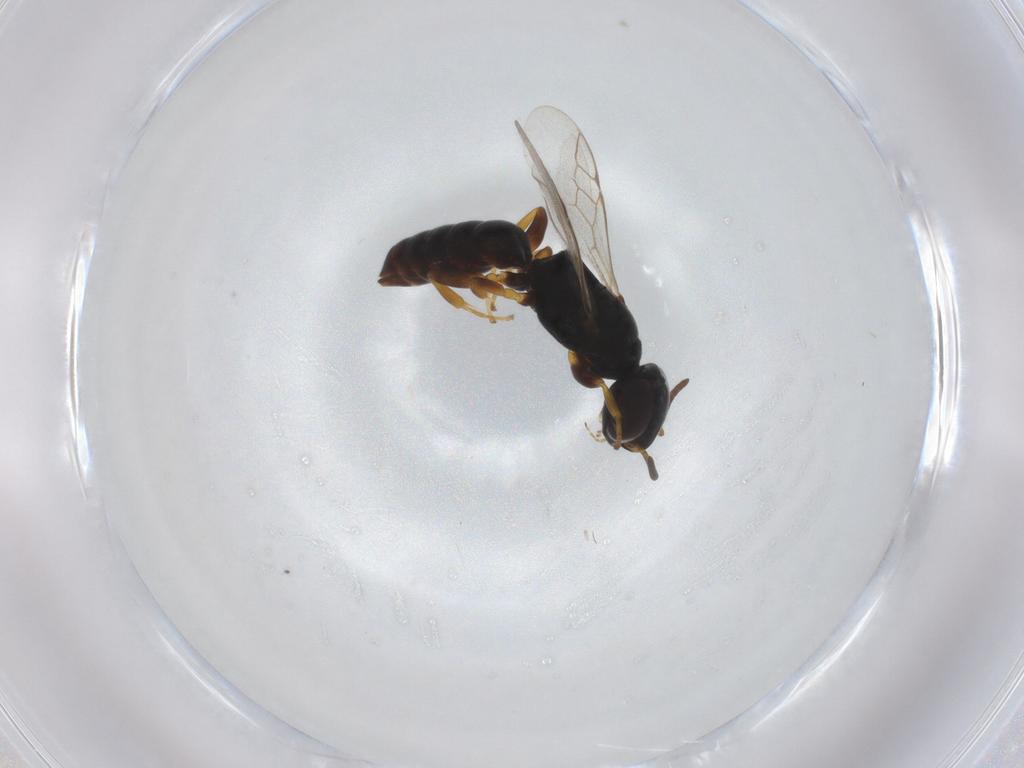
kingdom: Animalia
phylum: Arthropoda
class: Insecta
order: Hymenoptera
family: Crabronidae
